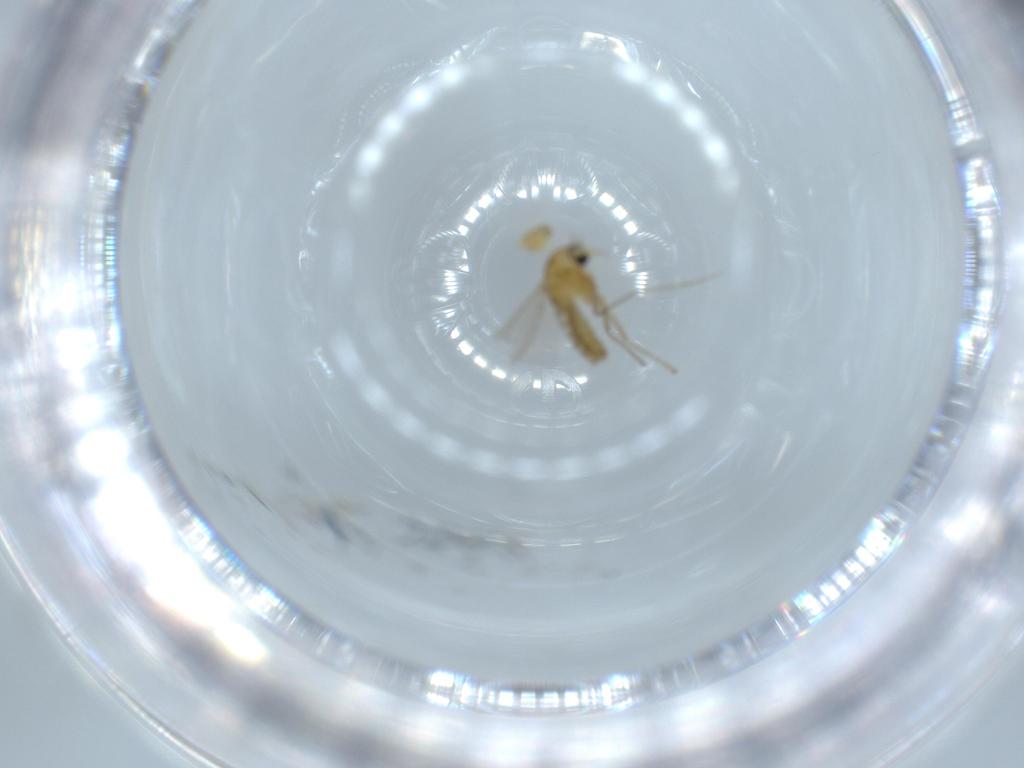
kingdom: Animalia
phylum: Arthropoda
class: Insecta
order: Diptera
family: Chironomidae
